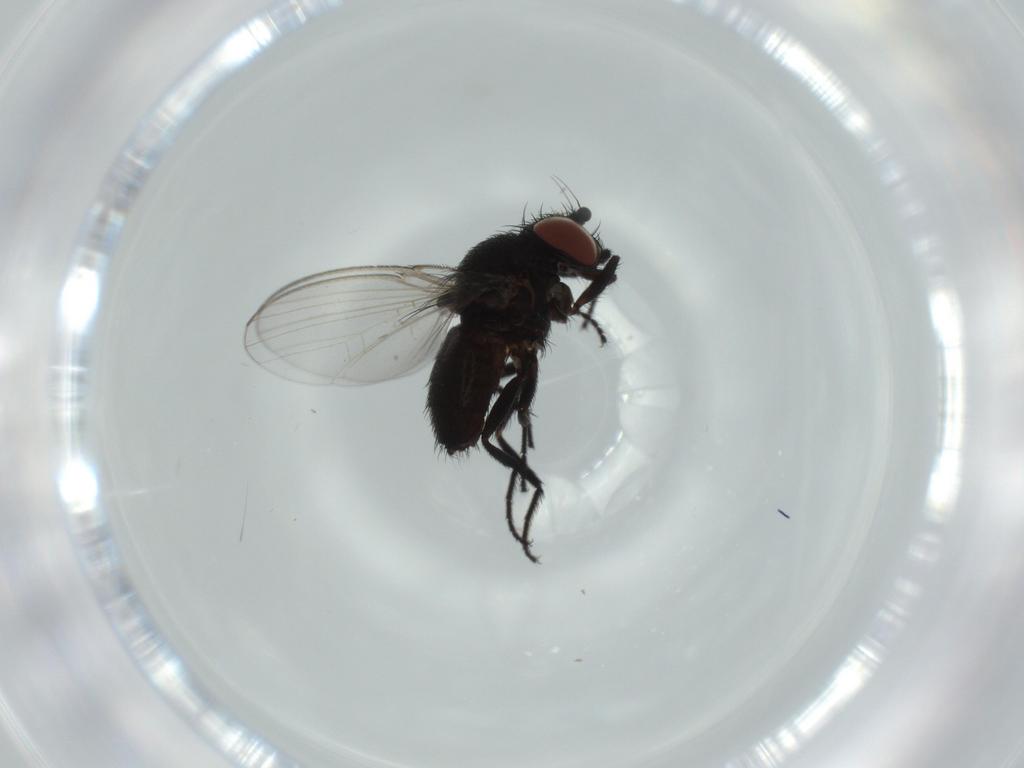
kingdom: Animalia
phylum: Arthropoda
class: Insecta
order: Diptera
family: Milichiidae
